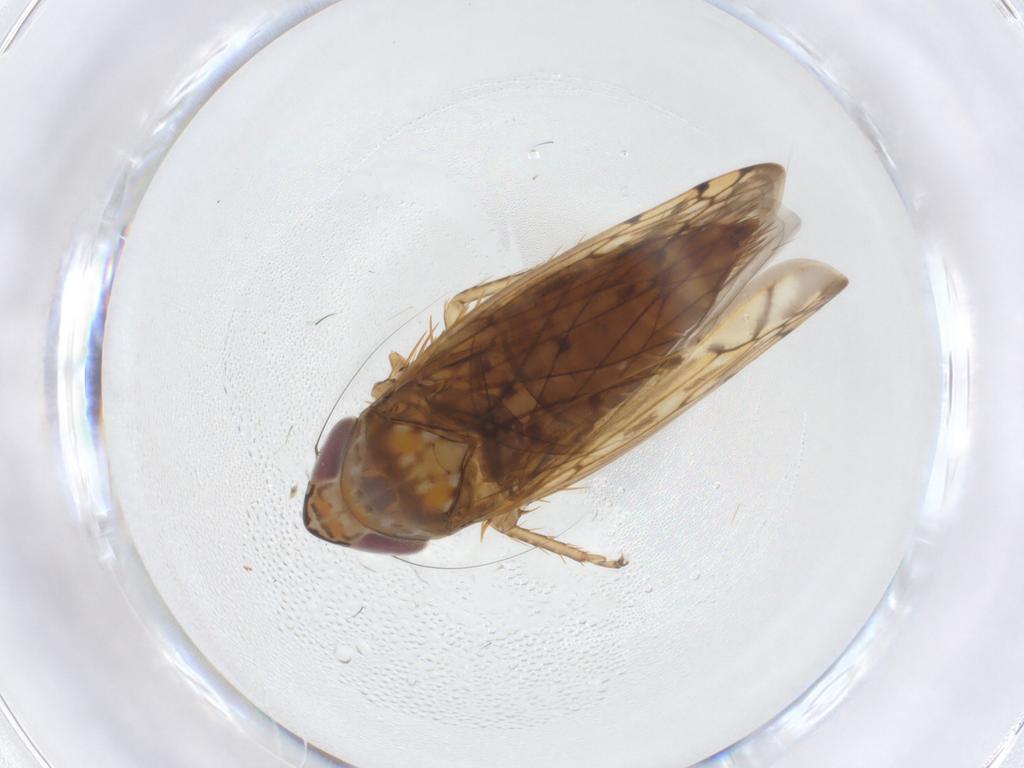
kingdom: Animalia
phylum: Arthropoda
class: Insecta
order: Hemiptera
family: Cicadellidae
